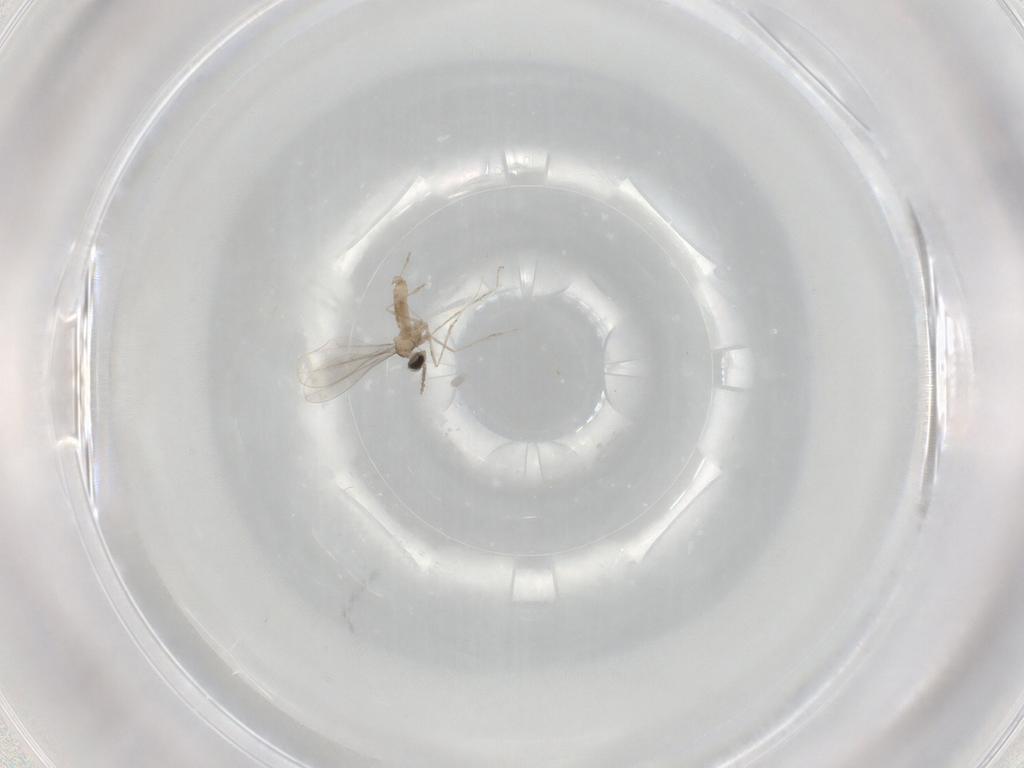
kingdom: Animalia
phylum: Arthropoda
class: Insecta
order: Diptera
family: Cecidomyiidae
